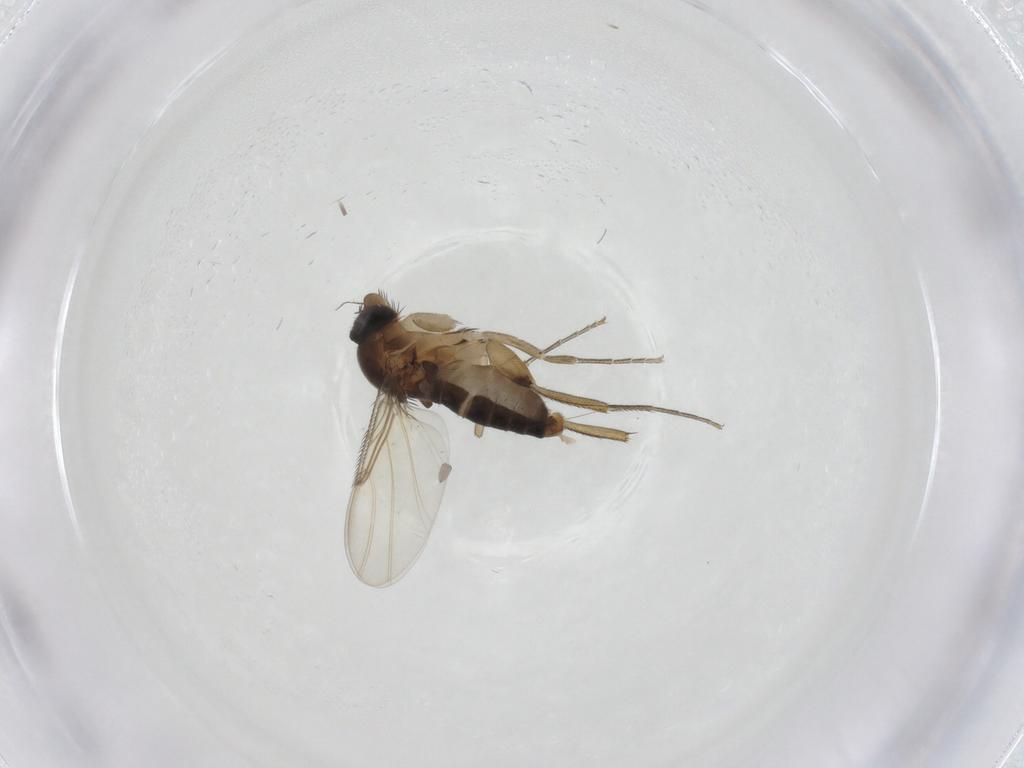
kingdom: Animalia
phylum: Arthropoda
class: Insecta
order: Diptera
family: Phoridae
